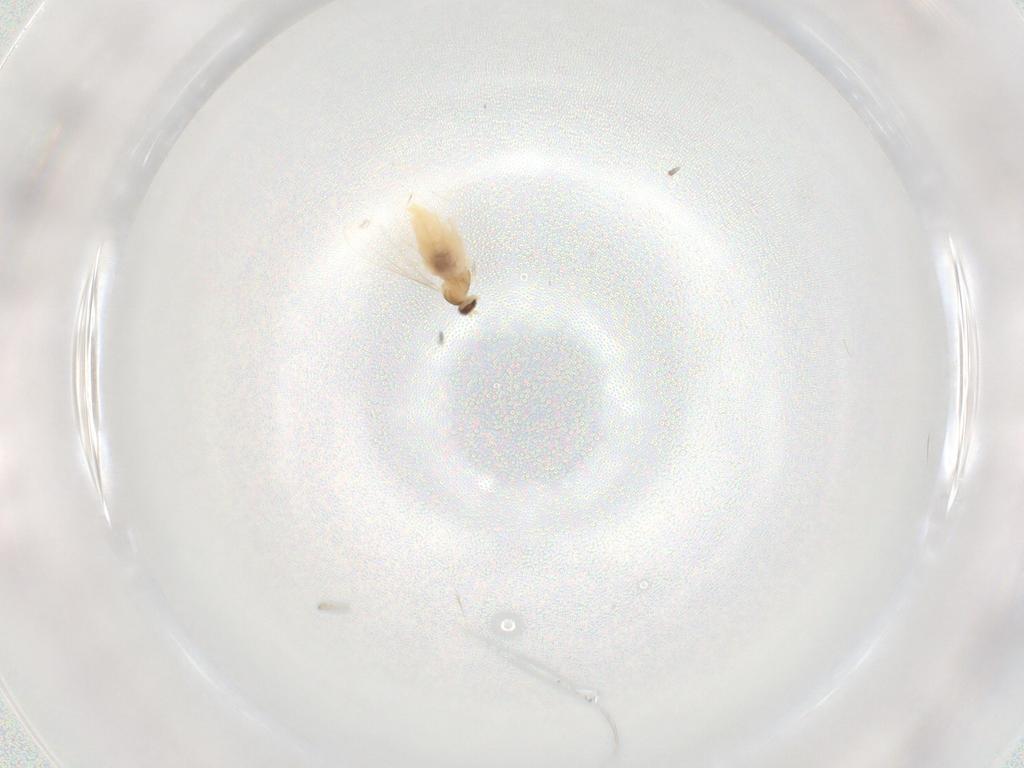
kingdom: Animalia
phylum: Arthropoda
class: Insecta
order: Diptera
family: Cecidomyiidae
